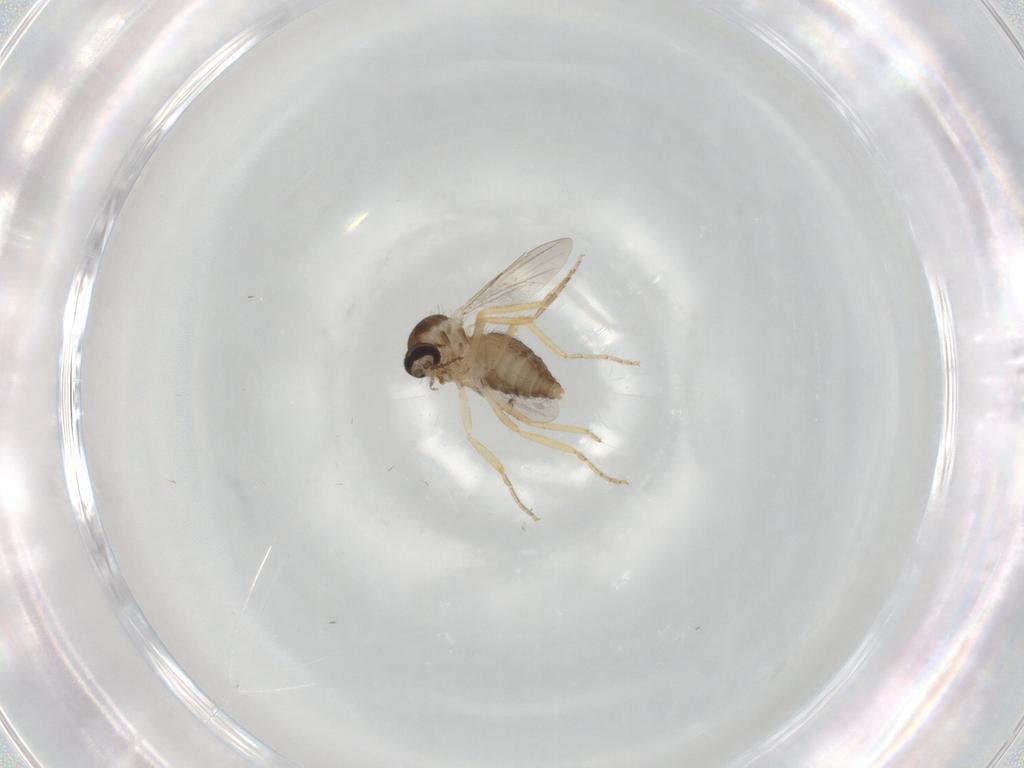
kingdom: Animalia
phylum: Arthropoda
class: Insecta
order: Diptera
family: Ceratopogonidae
